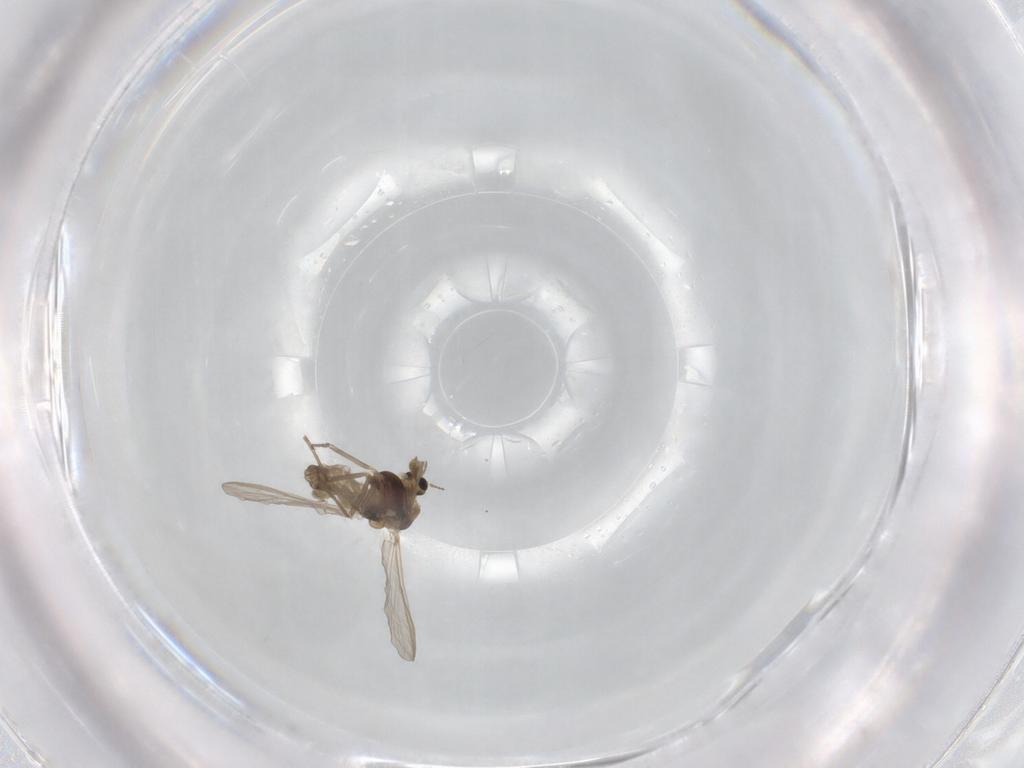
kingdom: Animalia
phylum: Arthropoda
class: Insecta
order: Diptera
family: Chironomidae
